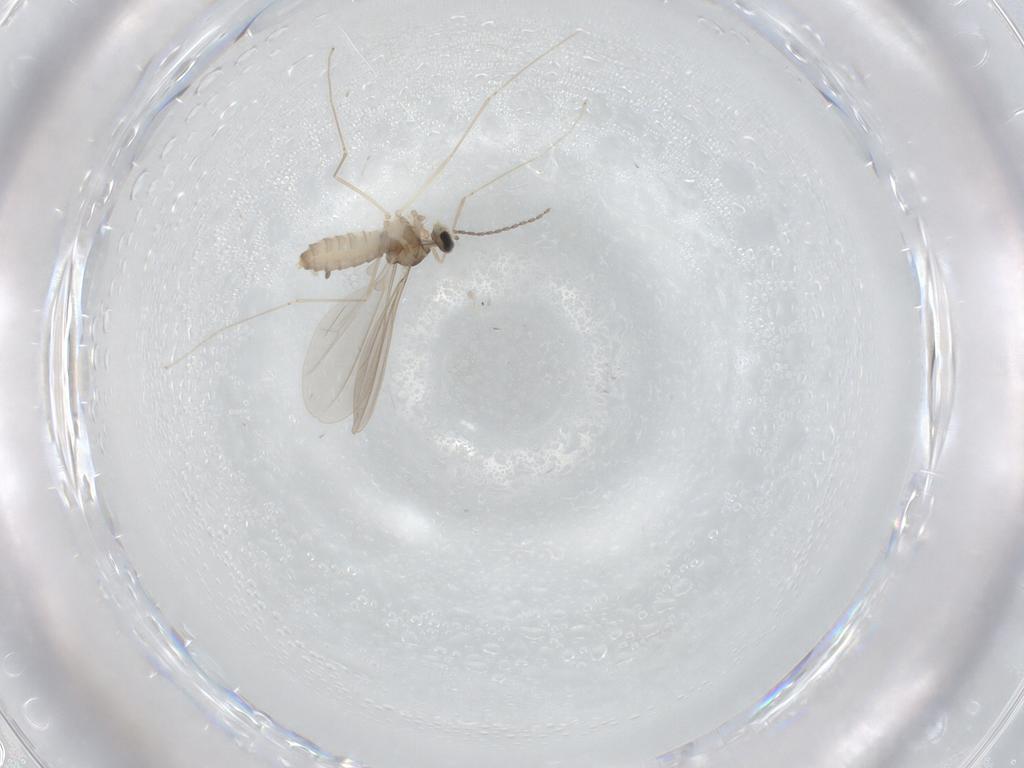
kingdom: Animalia
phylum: Arthropoda
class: Insecta
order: Diptera
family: Cecidomyiidae
